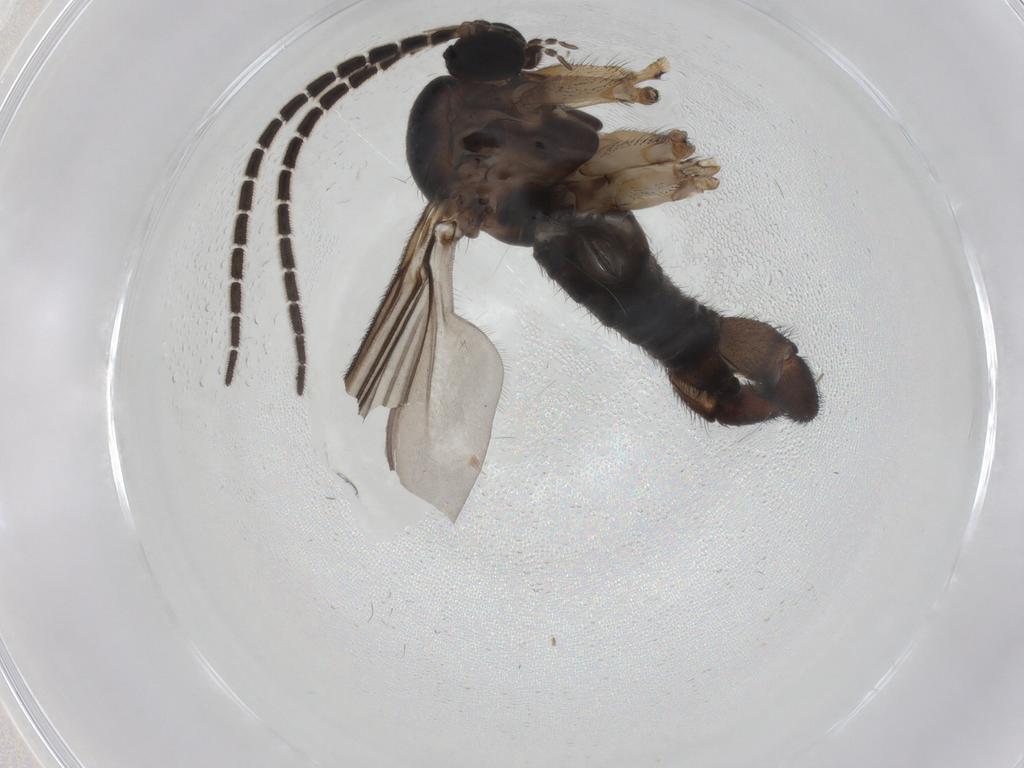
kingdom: Animalia
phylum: Arthropoda
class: Insecta
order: Diptera
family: Sciaridae
